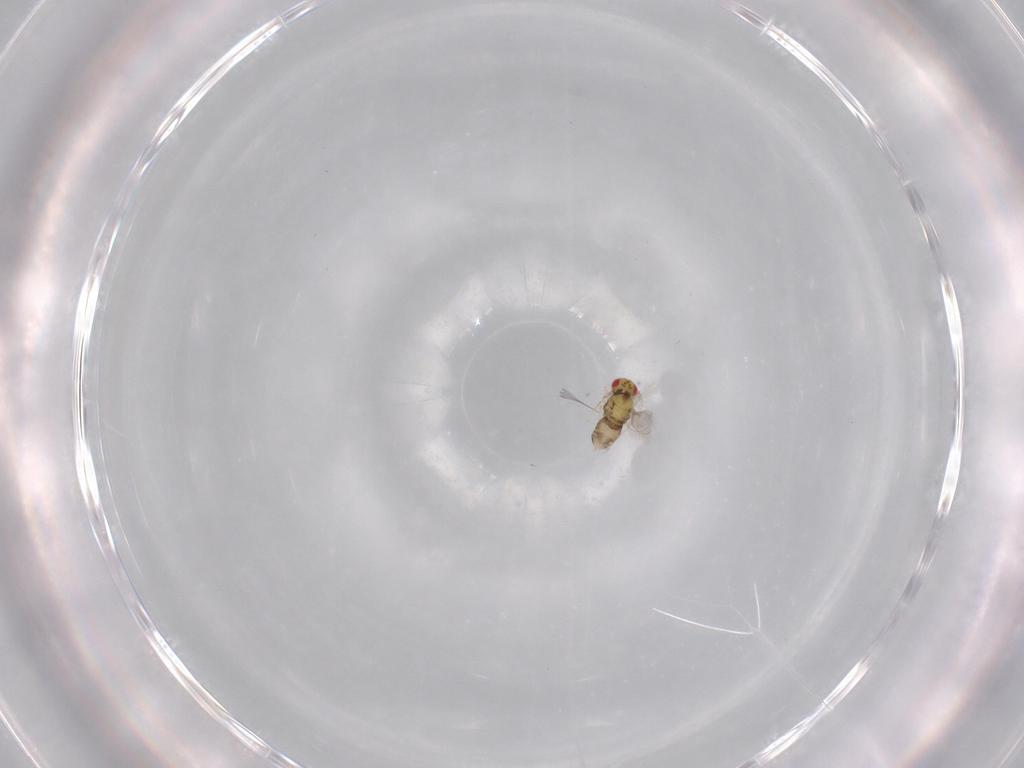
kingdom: Animalia
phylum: Arthropoda
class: Insecta
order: Hymenoptera
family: Aphelinidae
